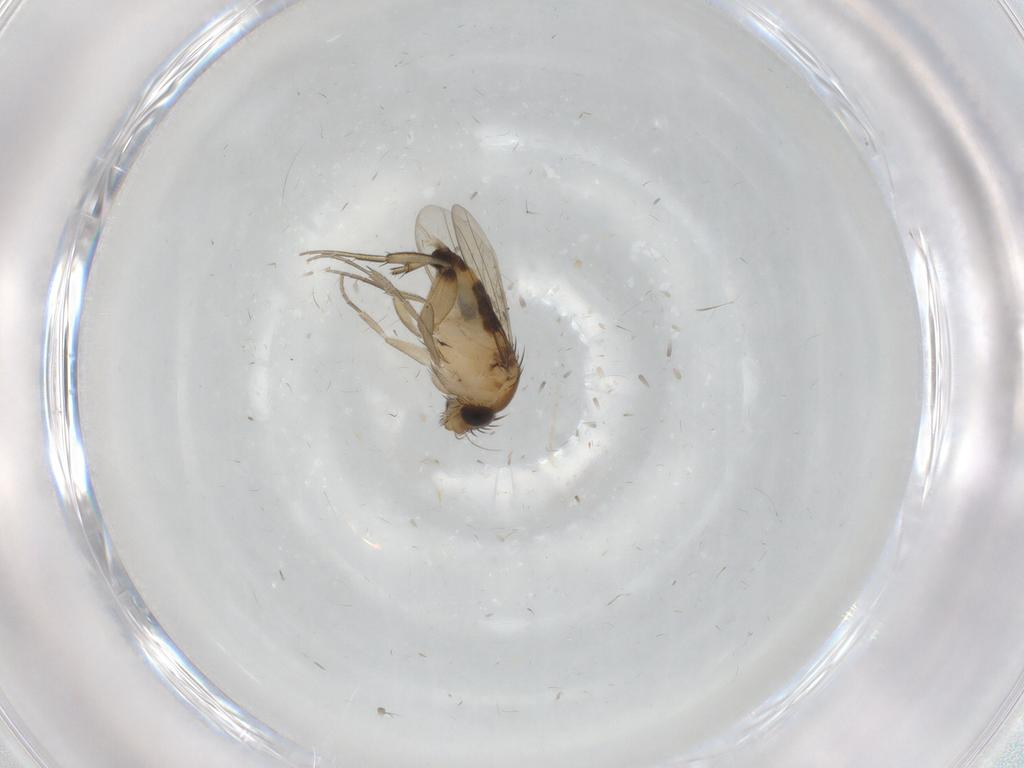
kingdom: Animalia
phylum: Arthropoda
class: Insecta
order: Diptera
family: Phoridae
